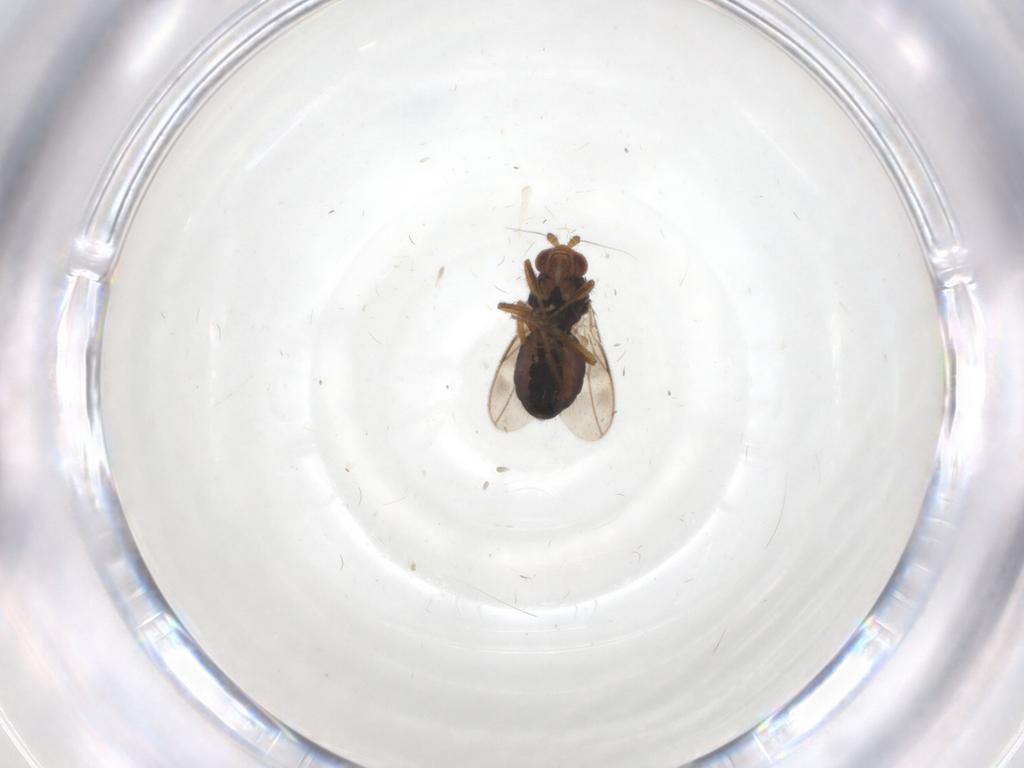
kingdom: Animalia
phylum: Arthropoda
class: Insecta
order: Diptera
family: Sphaeroceridae
